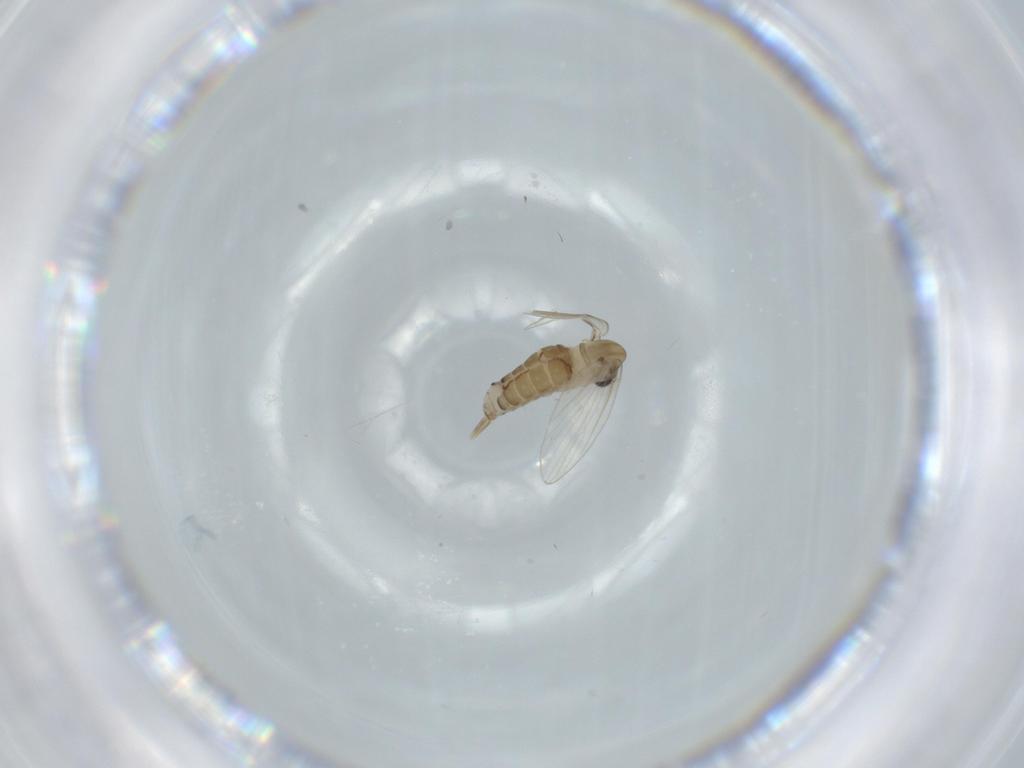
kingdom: Animalia
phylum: Arthropoda
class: Insecta
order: Diptera
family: Psychodidae
